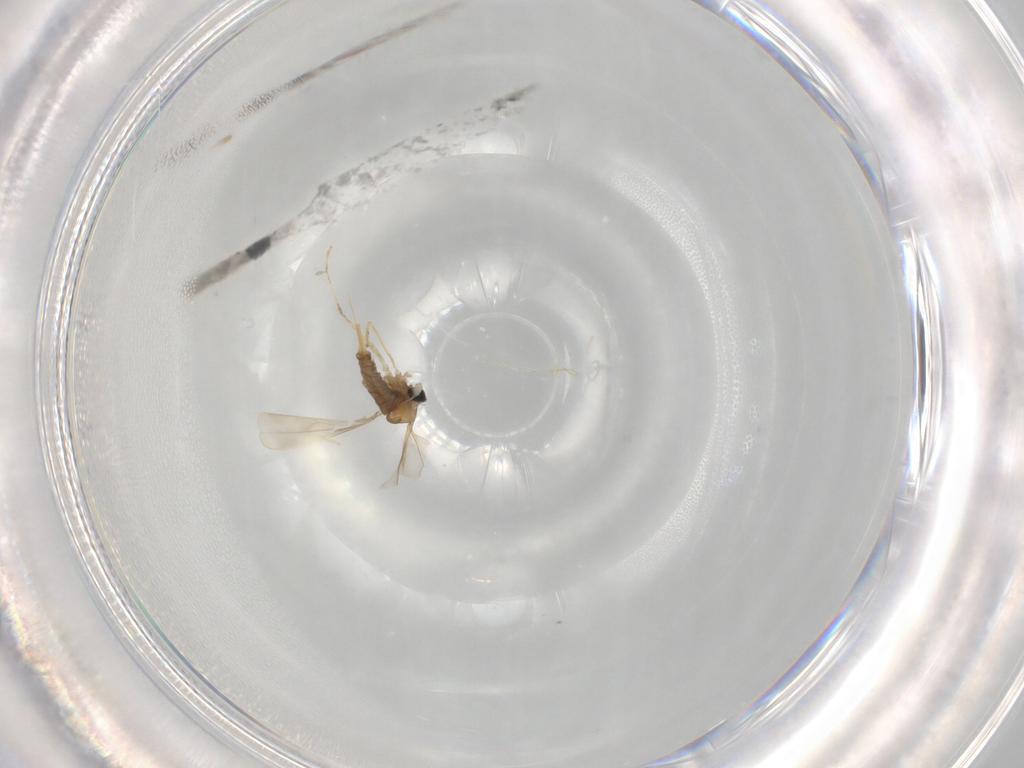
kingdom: Animalia
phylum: Arthropoda
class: Insecta
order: Diptera
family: Cecidomyiidae
